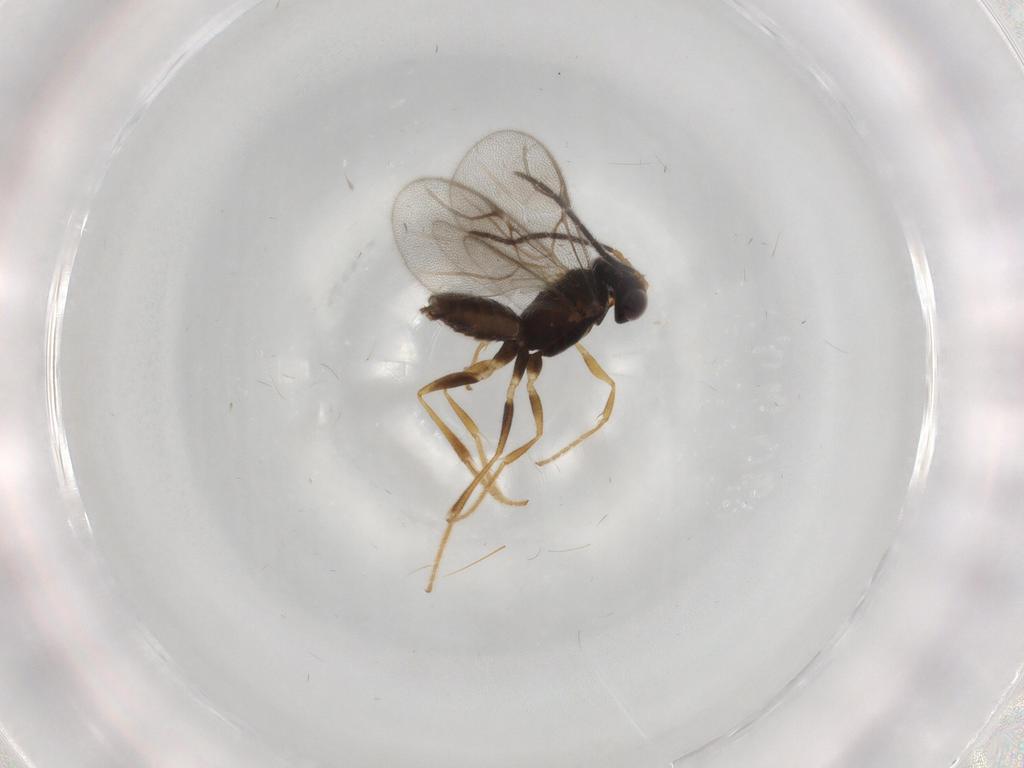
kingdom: Animalia
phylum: Arthropoda
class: Insecta
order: Hymenoptera
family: Dryinidae
